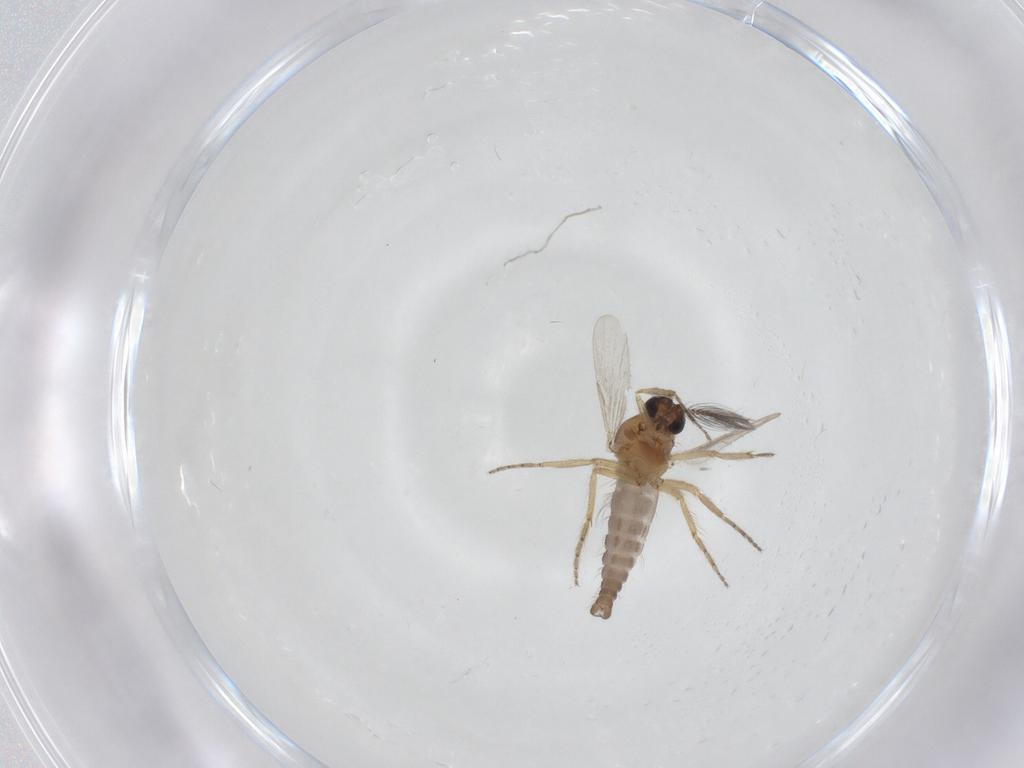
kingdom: Animalia
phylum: Arthropoda
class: Insecta
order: Diptera
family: Ceratopogonidae
